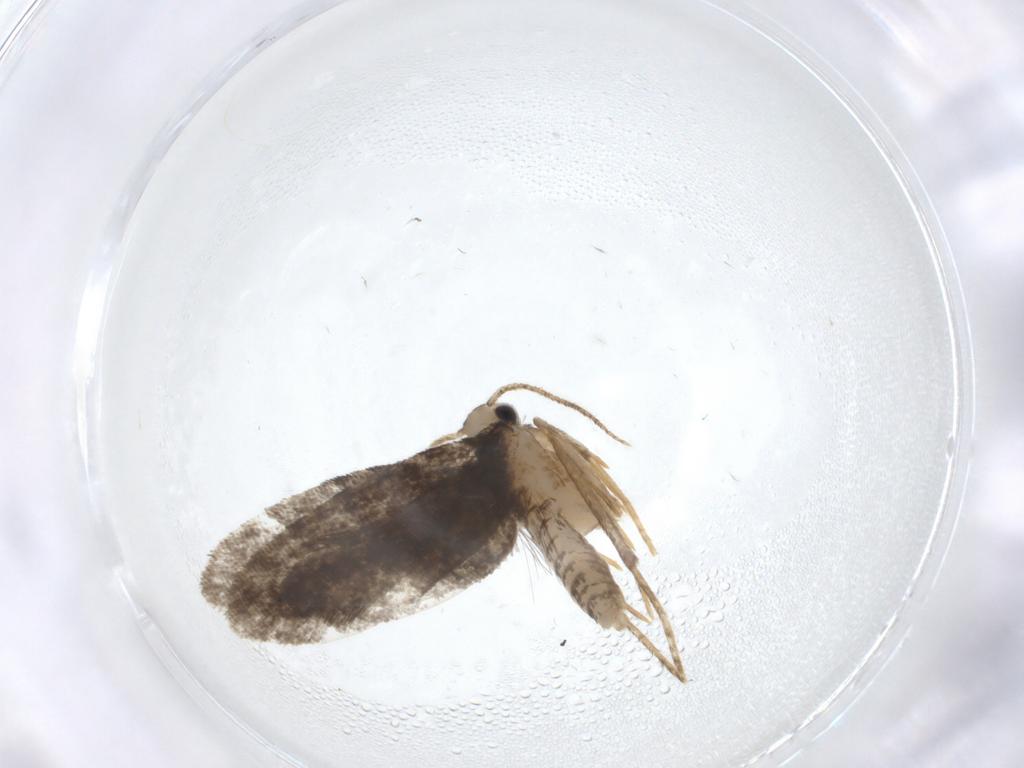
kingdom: Animalia
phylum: Arthropoda
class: Insecta
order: Lepidoptera
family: Psychidae
